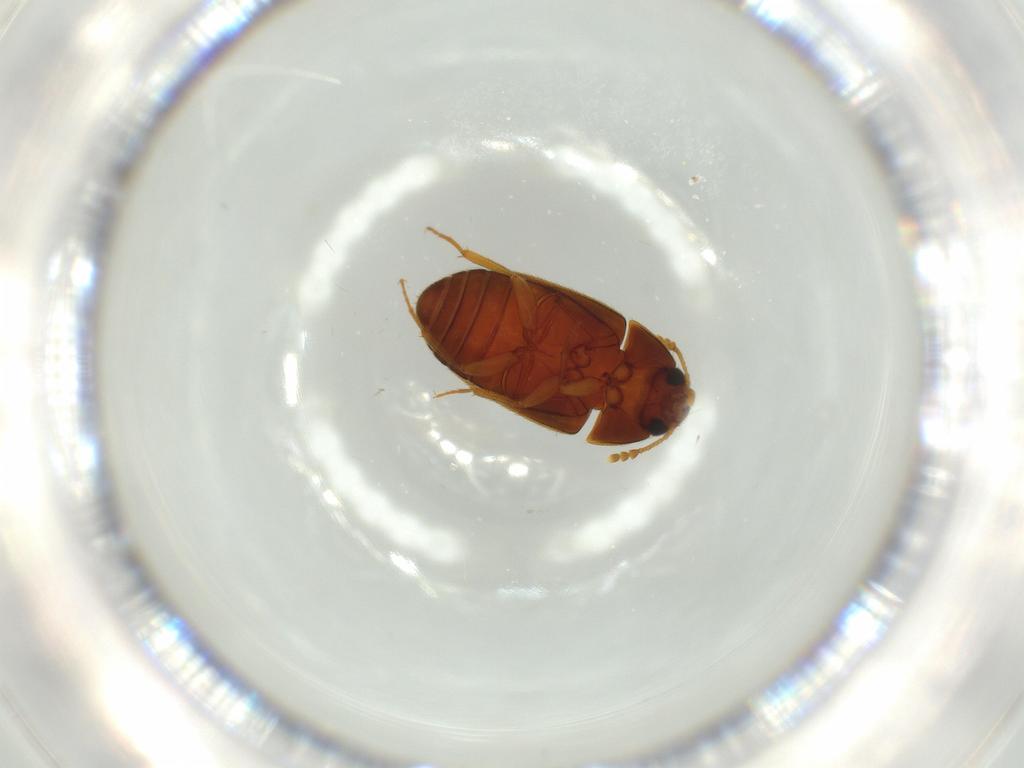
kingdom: Animalia
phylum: Arthropoda
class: Insecta
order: Coleoptera
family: Mycetophagidae
